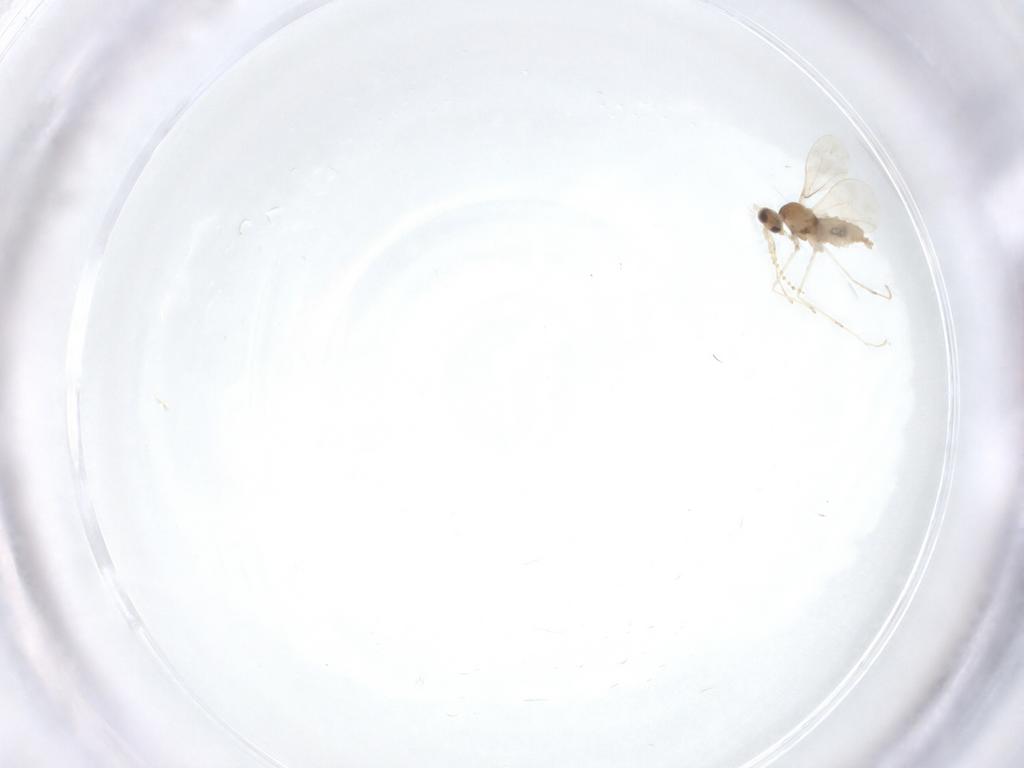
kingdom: Animalia
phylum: Arthropoda
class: Insecta
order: Diptera
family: Cecidomyiidae
